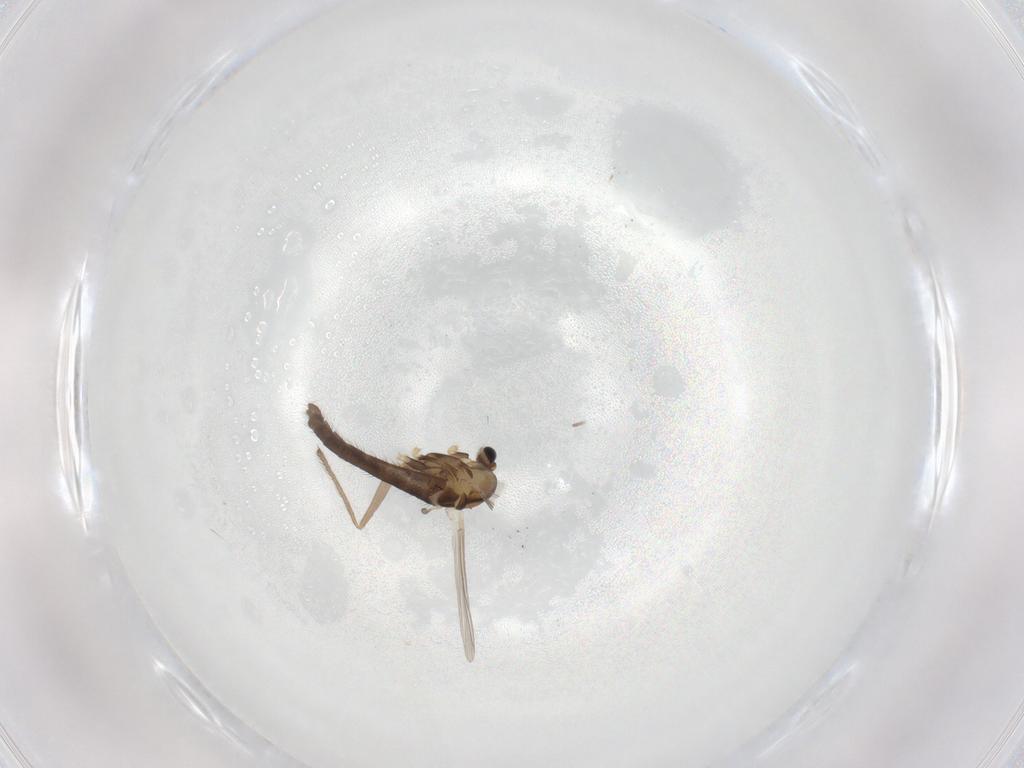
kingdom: Animalia
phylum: Arthropoda
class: Insecta
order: Diptera
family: Chironomidae
